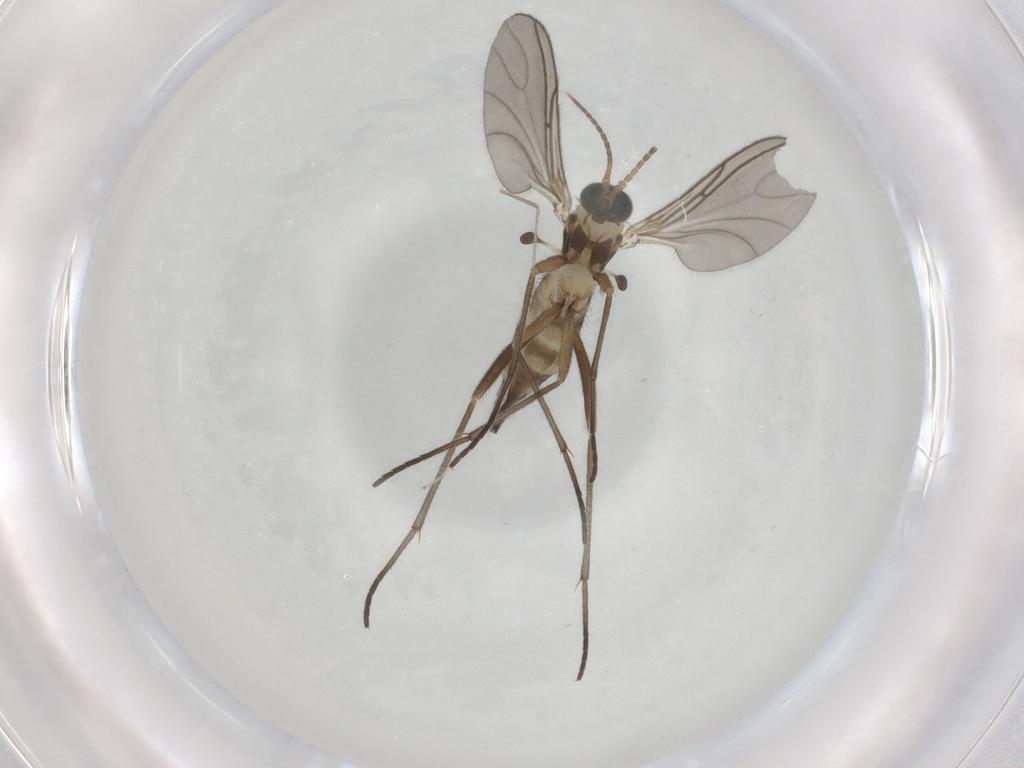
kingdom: Animalia
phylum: Arthropoda
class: Insecta
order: Diptera
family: Sciaridae
